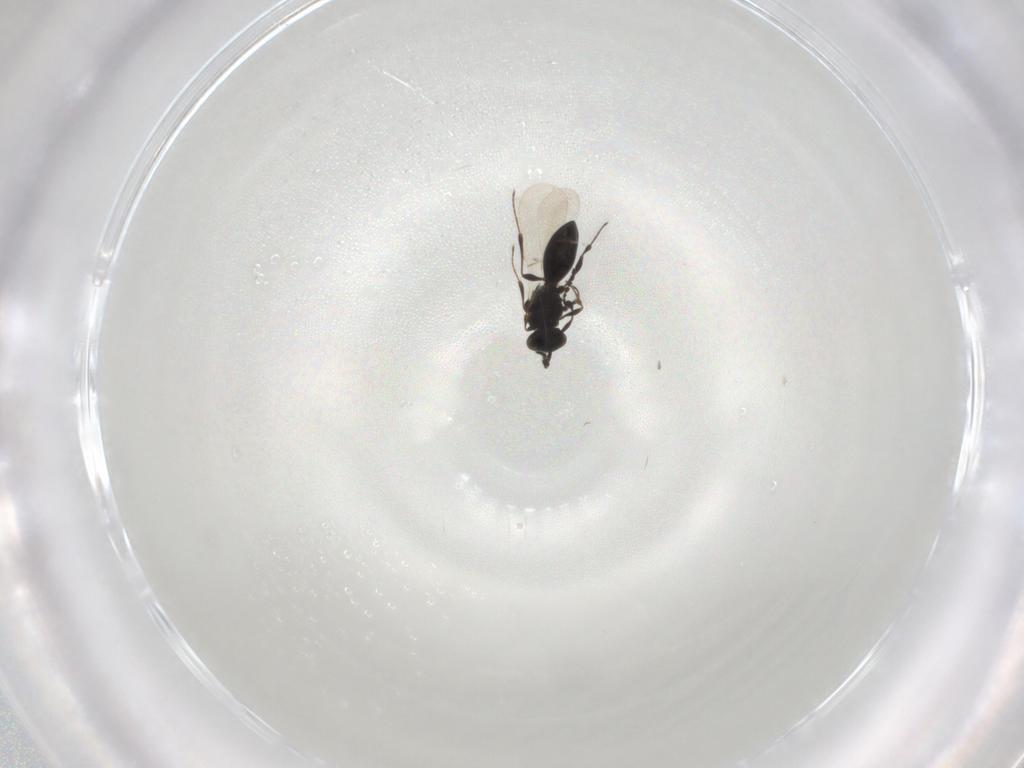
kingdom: Animalia
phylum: Arthropoda
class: Insecta
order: Hymenoptera
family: Platygastridae
